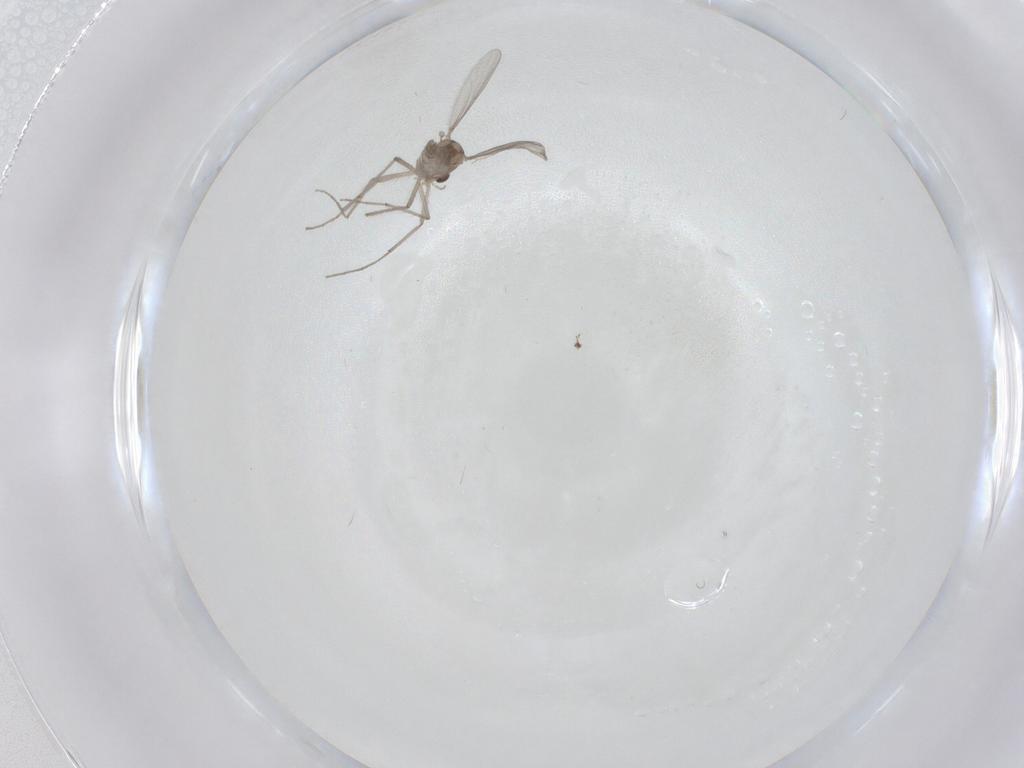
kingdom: Animalia
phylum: Arthropoda
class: Insecta
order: Diptera
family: Chironomidae
